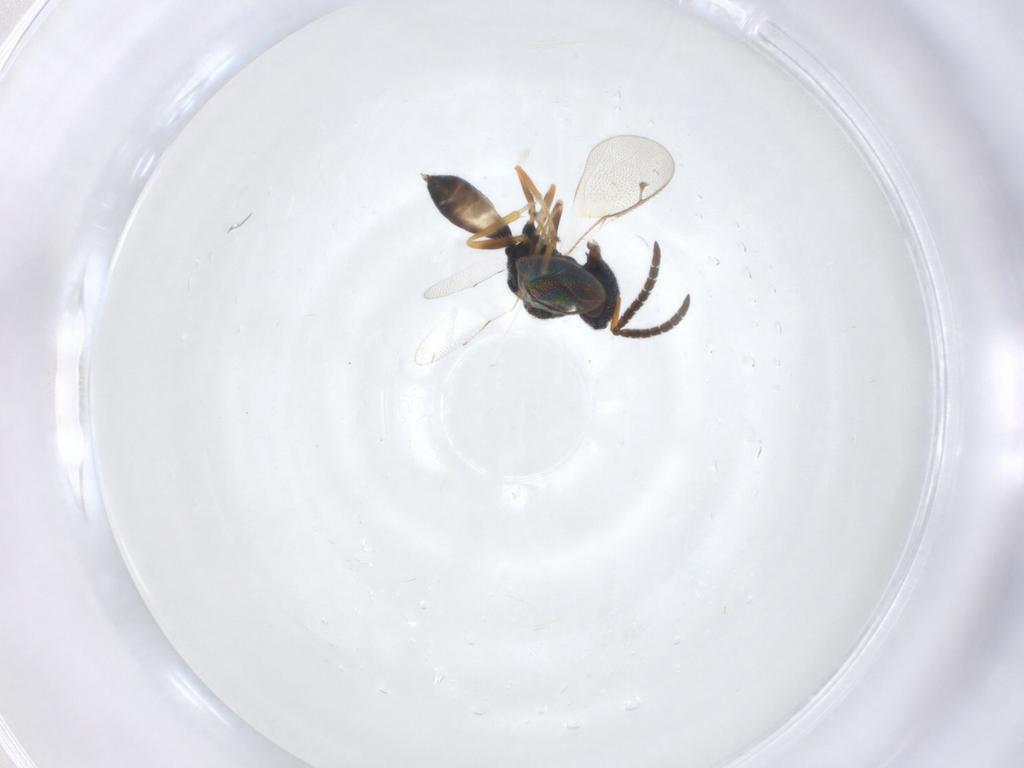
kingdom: Animalia
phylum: Arthropoda
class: Insecta
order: Hymenoptera
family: Pteromalidae
